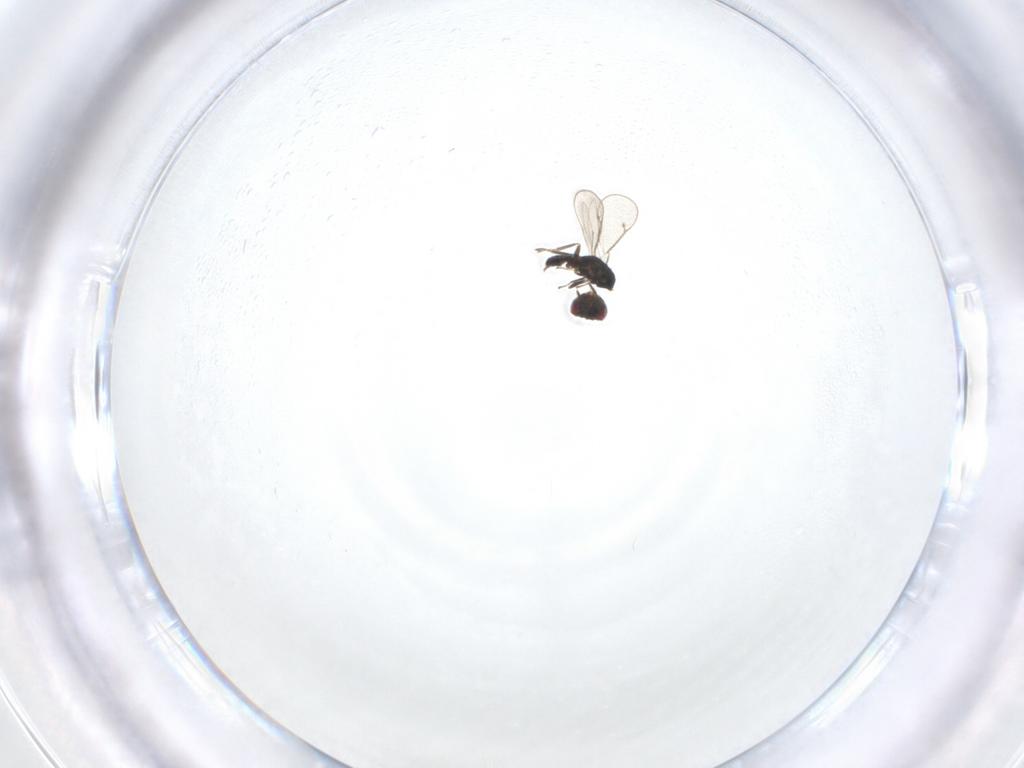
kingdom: Animalia
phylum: Arthropoda
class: Insecta
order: Hymenoptera
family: Eulophidae
